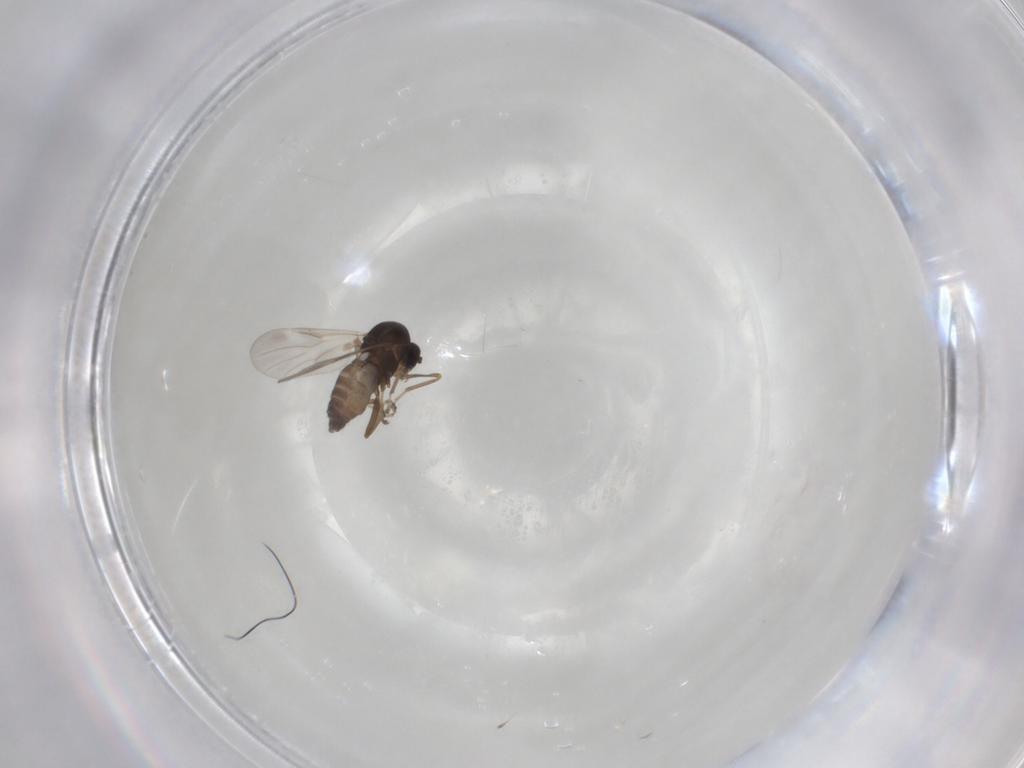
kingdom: Animalia
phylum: Arthropoda
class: Insecta
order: Diptera
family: Ceratopogonidae
